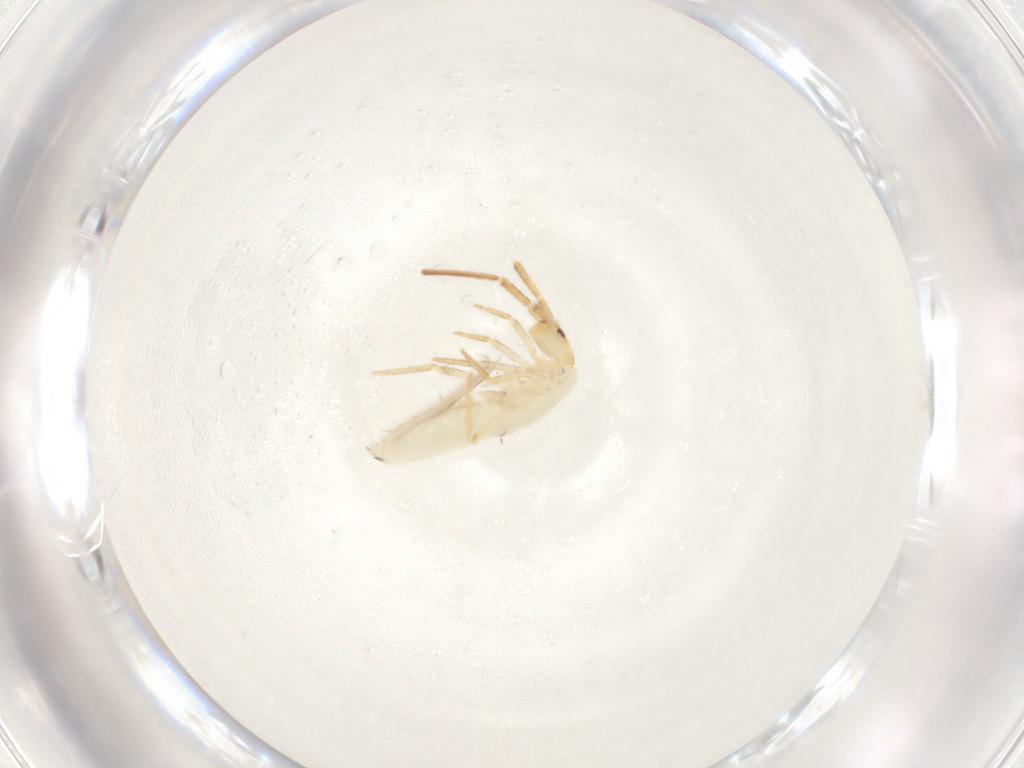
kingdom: Animalia
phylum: Arthropoda
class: Collembola
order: Entomobryomorpha
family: Entomobryidae
